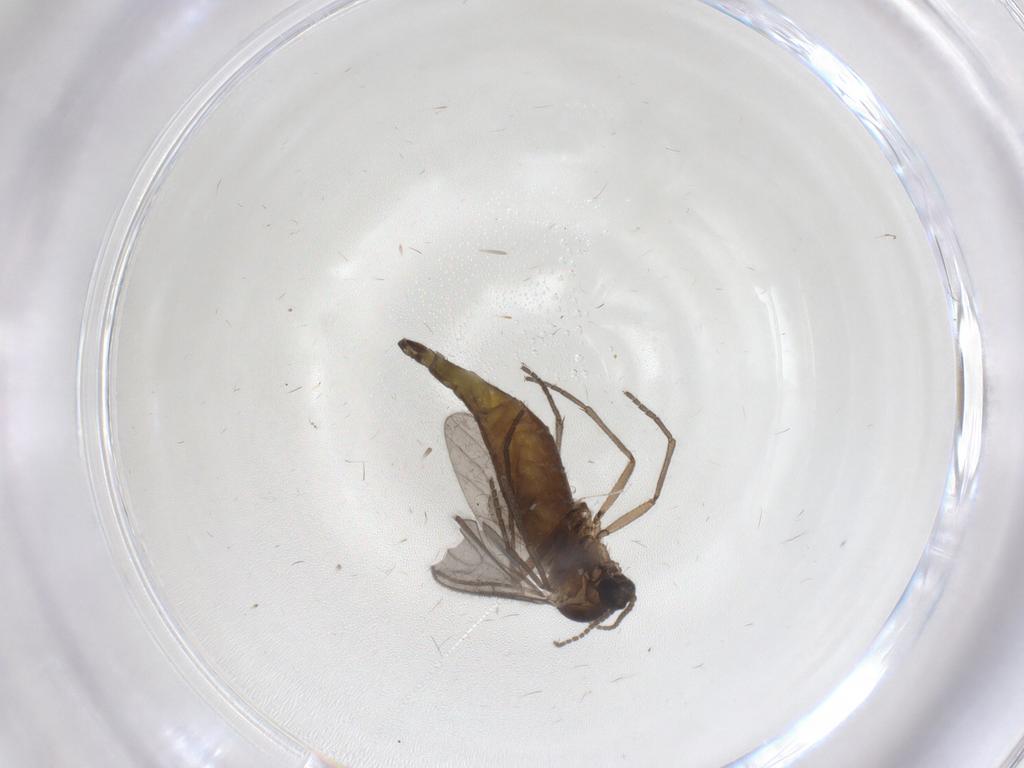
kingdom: Animalia
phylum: Arthropoda
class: Insecta
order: Diptera
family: Sciaridae
